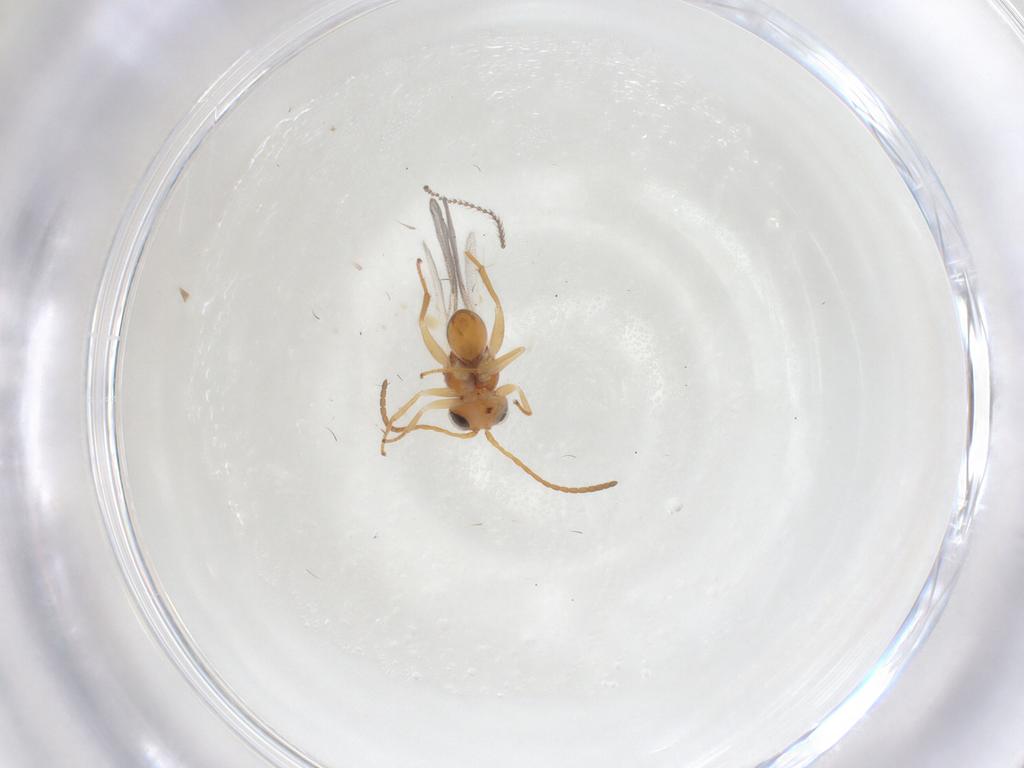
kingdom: Animalia
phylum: Arthropoda
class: Insecta
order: Hymenoptera
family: Cynipidae
